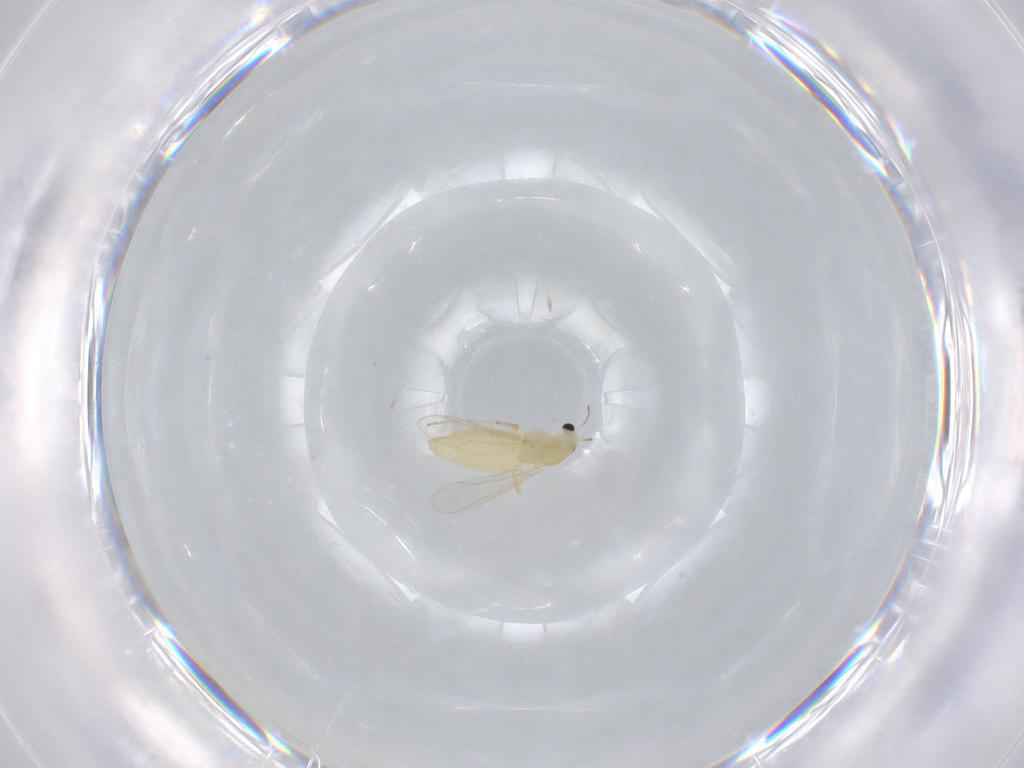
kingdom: Animalia
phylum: Arthropoda
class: Insecta
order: Diptera
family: Chironomidae
